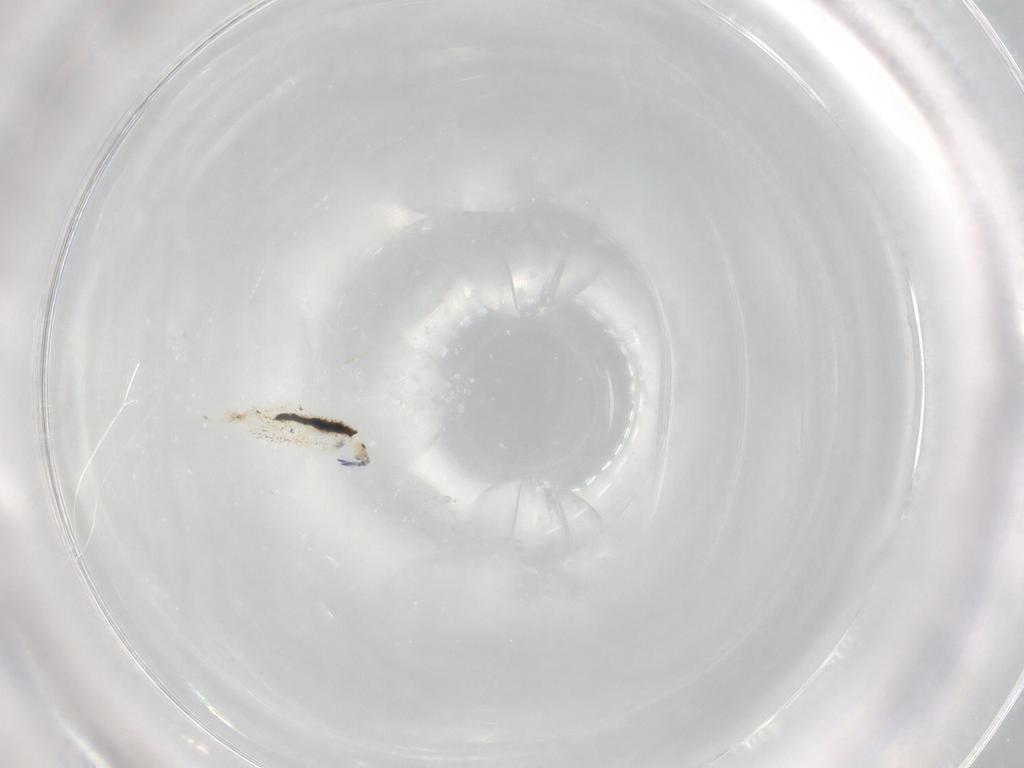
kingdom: Animalia
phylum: Arthropoda
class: Collembola
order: Entomobryomorpha
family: Entomobryidae
